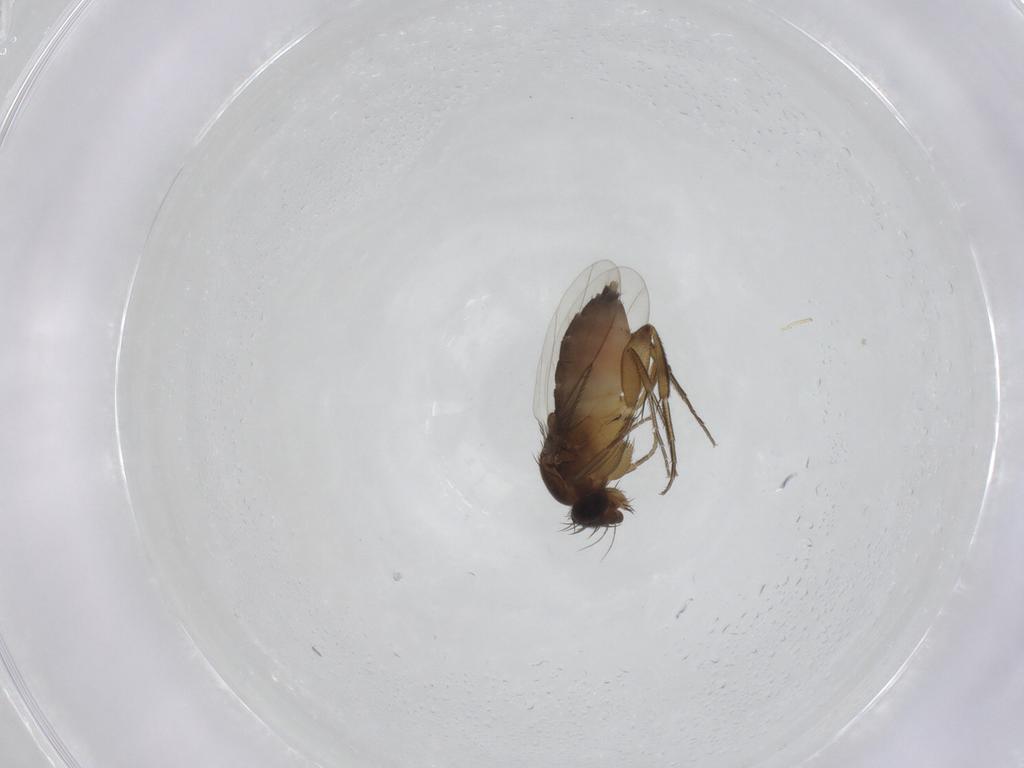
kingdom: Animalia
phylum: Arthropoda
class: Insecta
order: Diptera
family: Phoridae
